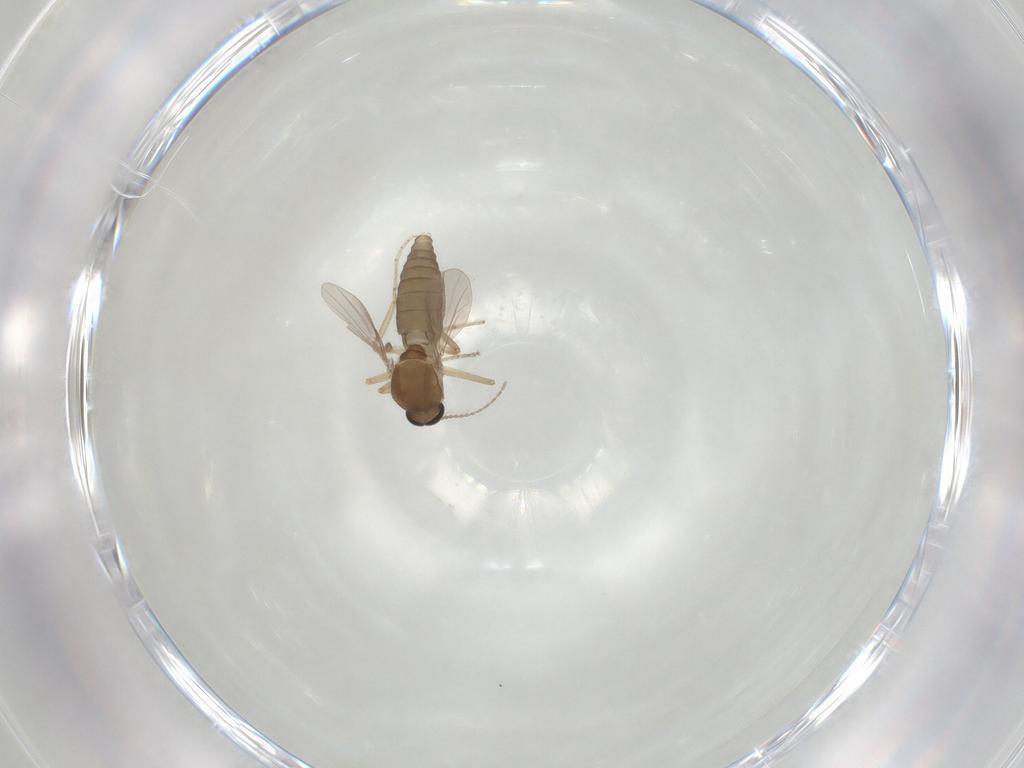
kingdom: Animalia
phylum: Arthropoda
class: Insecta
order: Diptera
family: Ceratopogonidae
